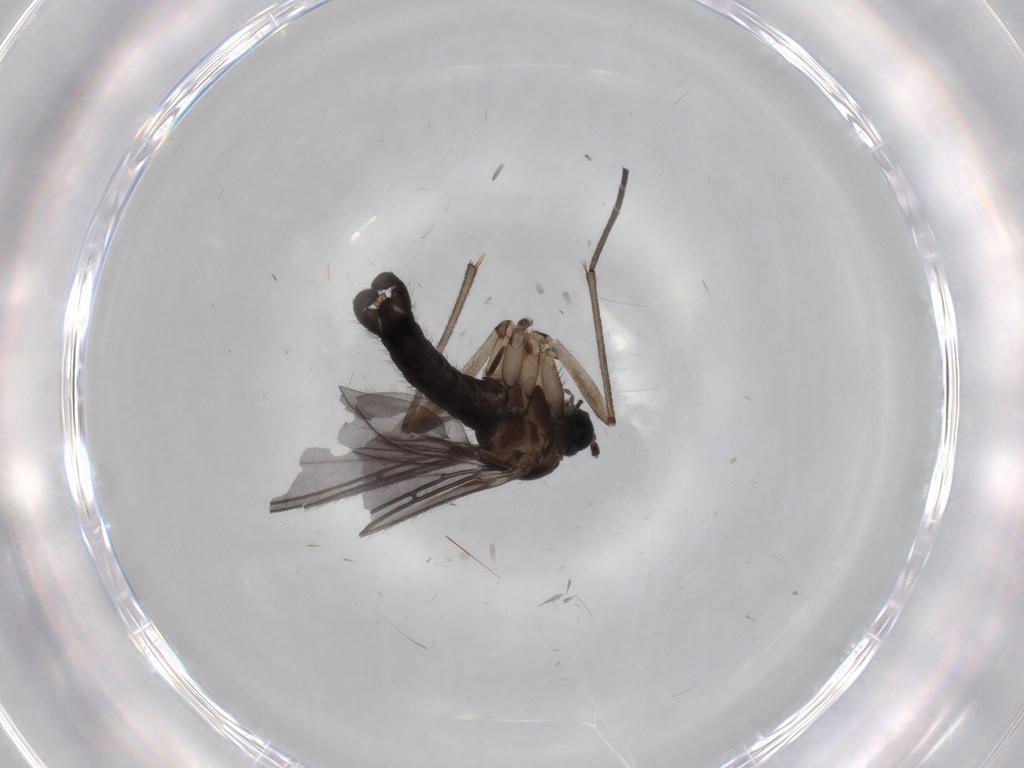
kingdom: Animalia
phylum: Arthropoda
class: Insecta
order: Diptera
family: Sciaridae
